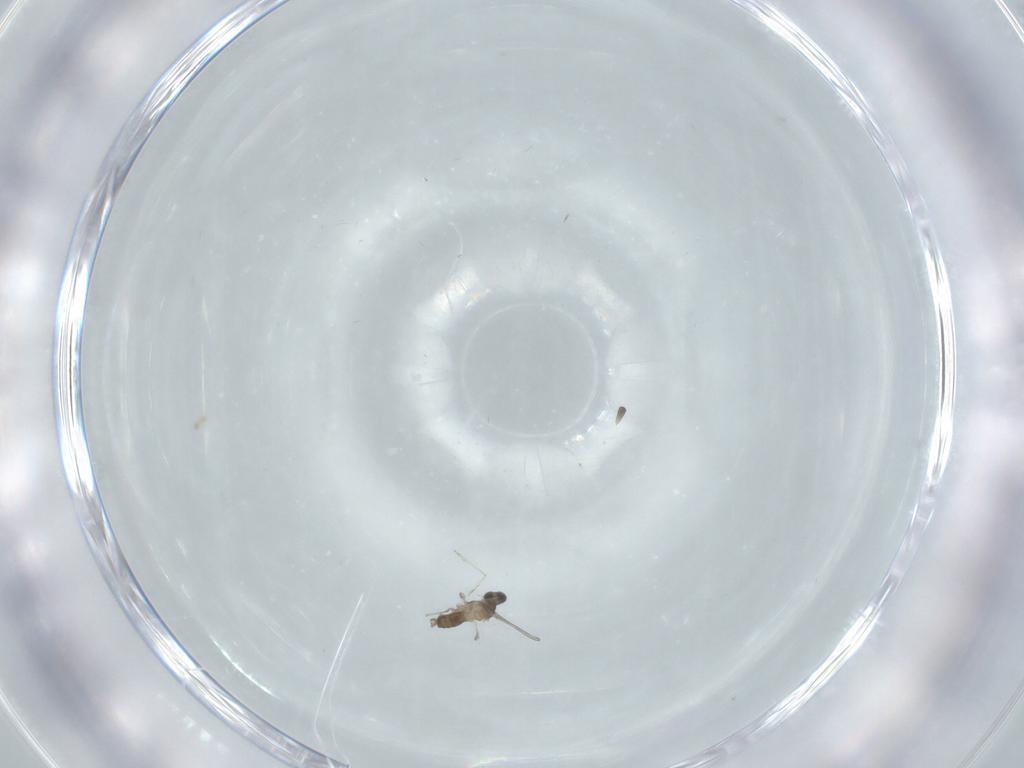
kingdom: Animalia
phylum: Arthropoda
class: Insecta
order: Diptera
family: Cecidomyiidae
